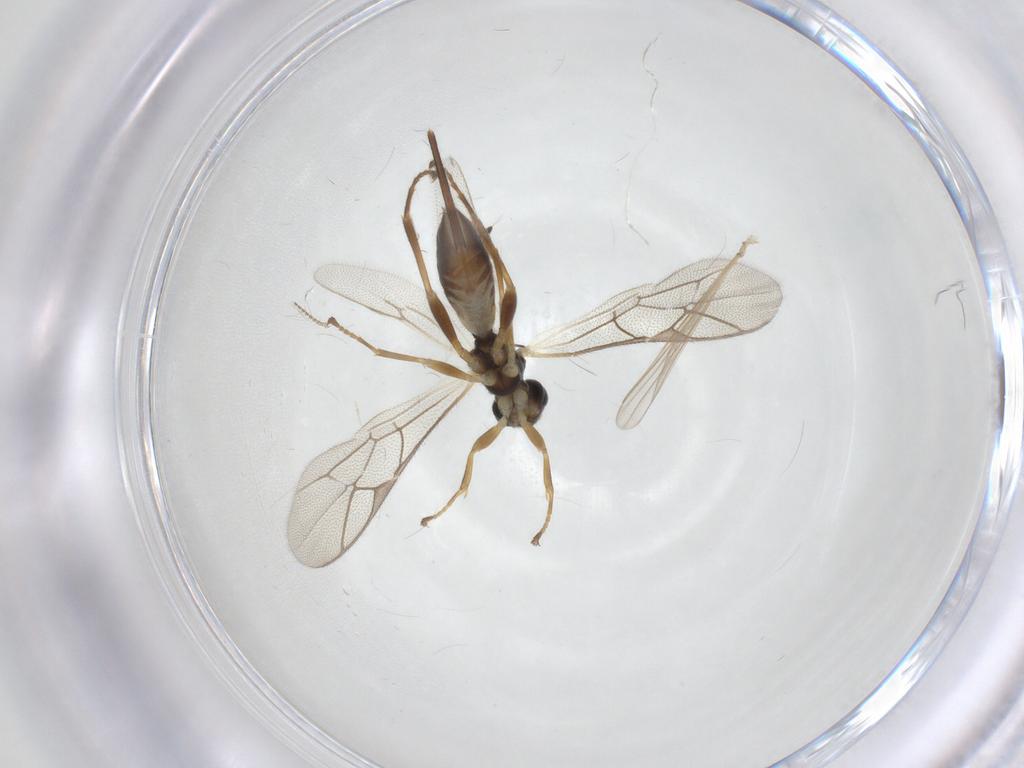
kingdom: Animalia
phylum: Arthropoda
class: Insecta
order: Hymenoptera
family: Ichneumonidae
